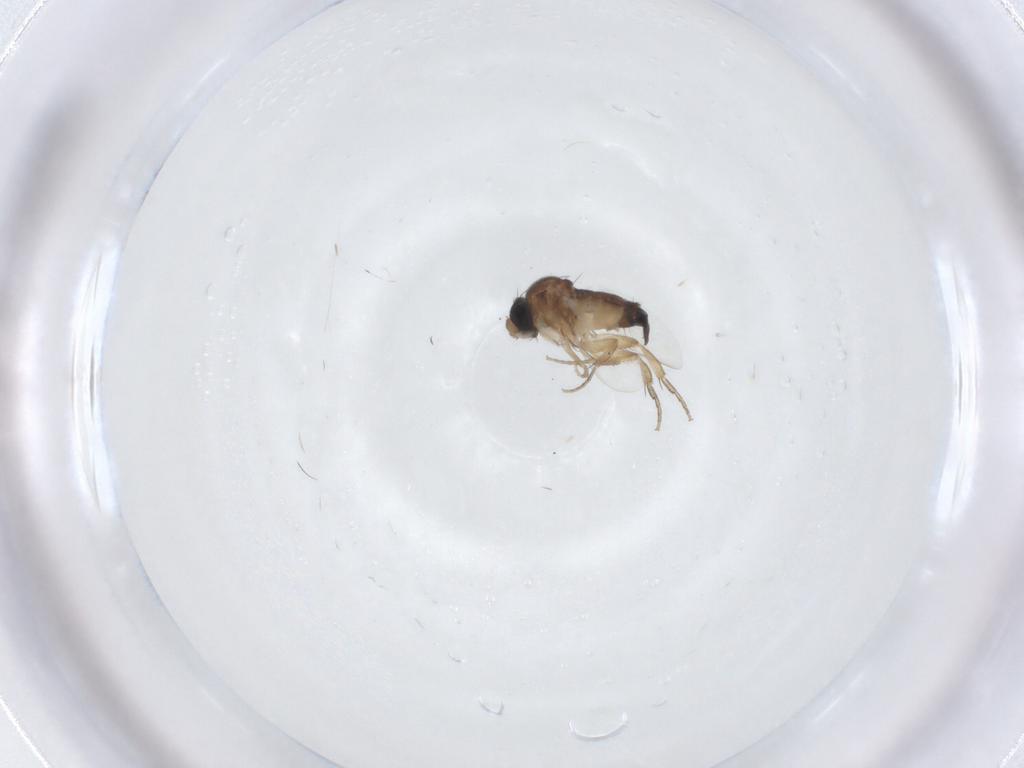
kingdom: Animalia
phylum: Arthropoda
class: Insecta
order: Diptera
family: Phoridae
